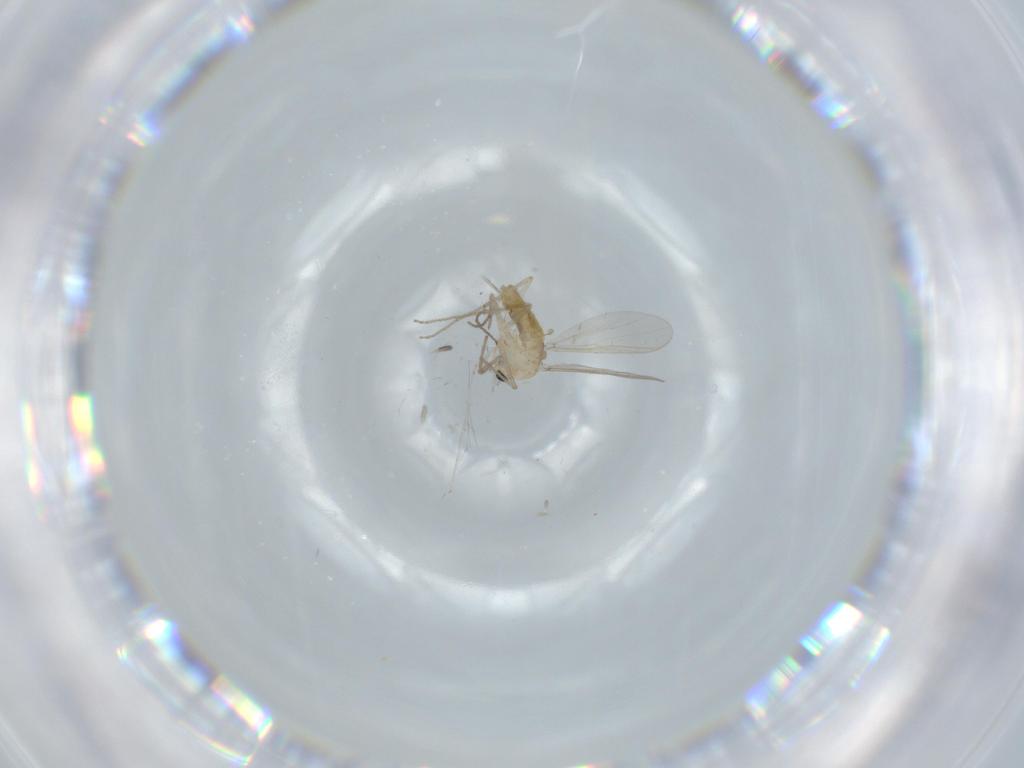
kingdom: Animalia
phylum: Arthropoda
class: Insecta
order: Diptera
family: Cecidomyiidae
